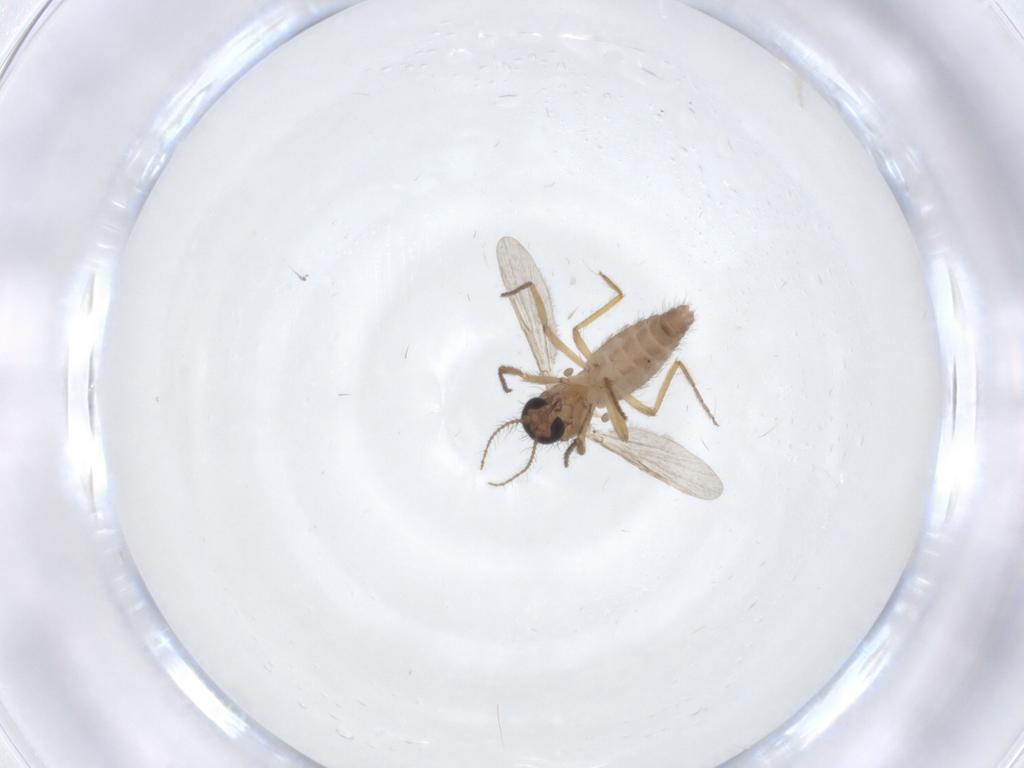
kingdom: Animalia
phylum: Arthropoda
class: Insecta
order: Diptera
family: Ceratopogonidae
